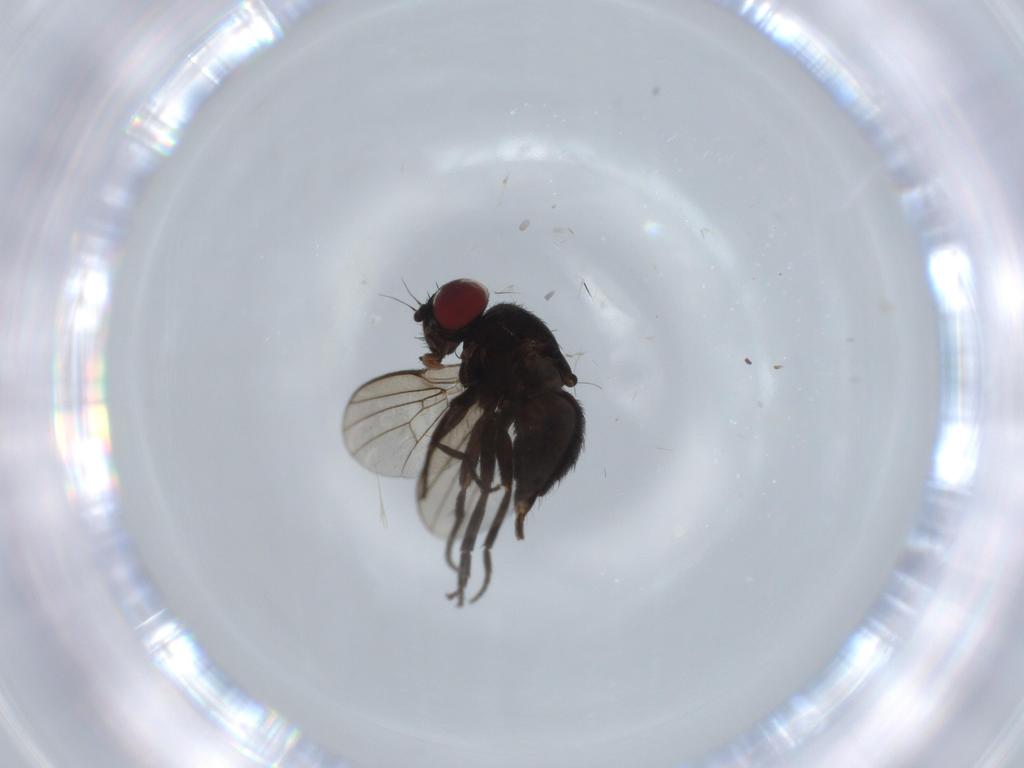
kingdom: Animalia
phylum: Arthropoda
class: Insecta
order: Diptera
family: Agromyzidae
